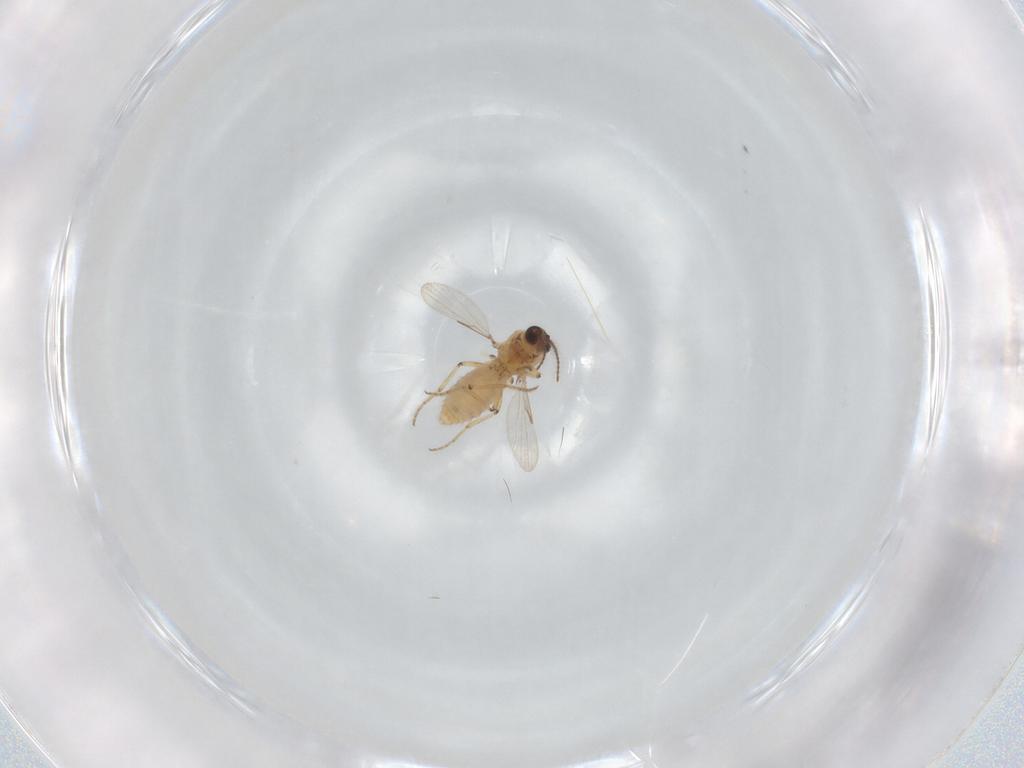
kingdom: Animalia
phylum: Arthropoda
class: Insecta
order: Diptera
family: Ceratopogonidae
